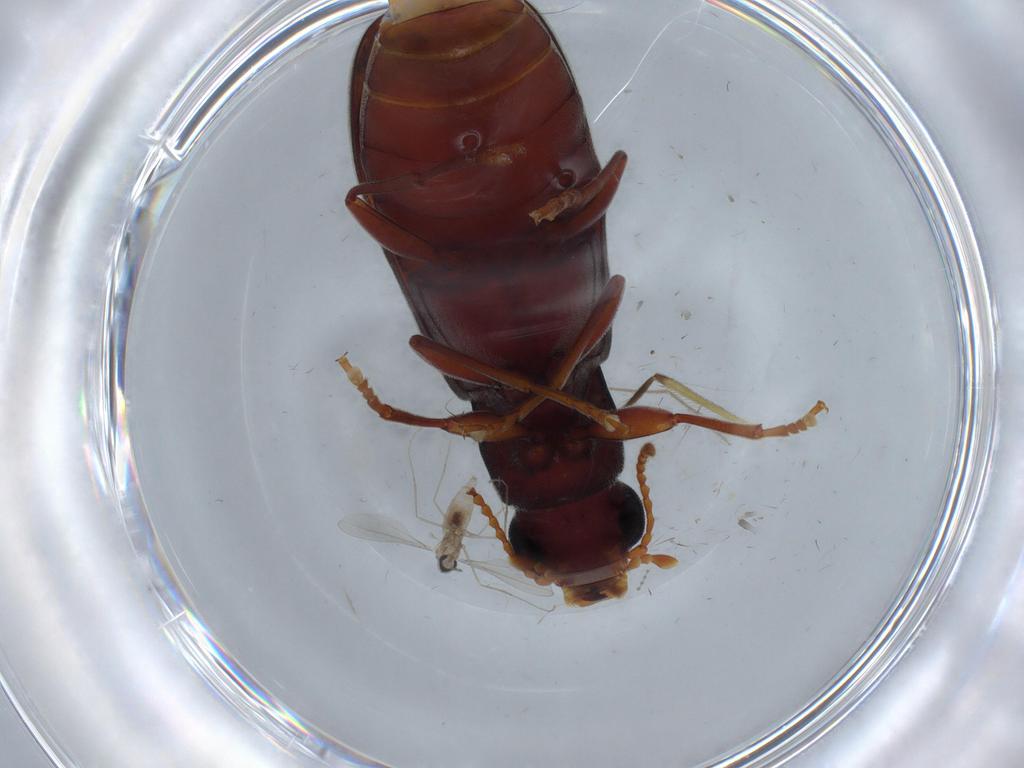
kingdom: Animalia
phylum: Arthropoda
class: Insecta
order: Coleoptera
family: Nitidulidae
